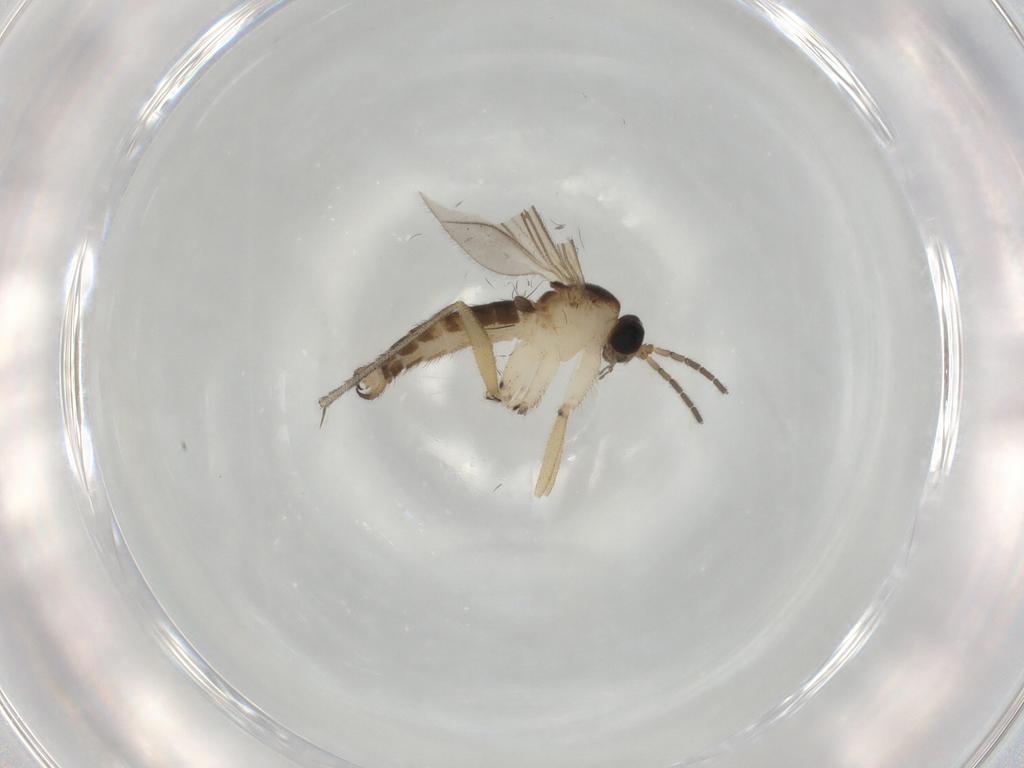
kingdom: Animalia
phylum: Arthropoda
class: Insecta
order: Diptera
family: Sciaridae
